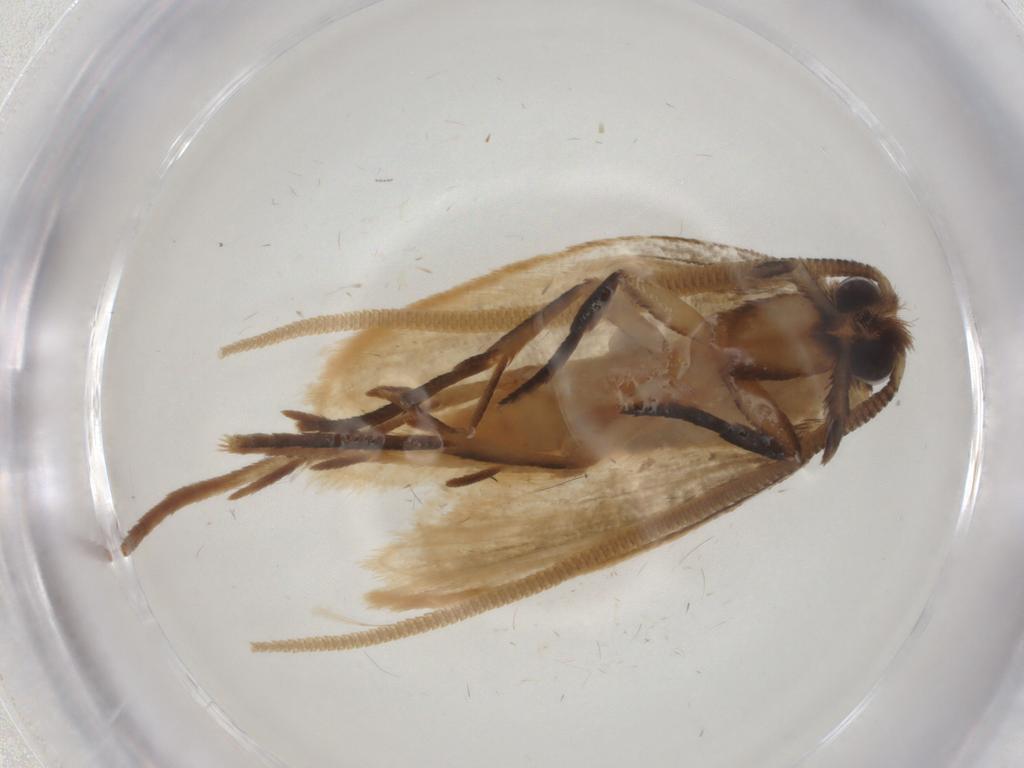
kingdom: Animalia
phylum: Arthropoda
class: Insecta
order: Lepidoptera
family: Tineidae
